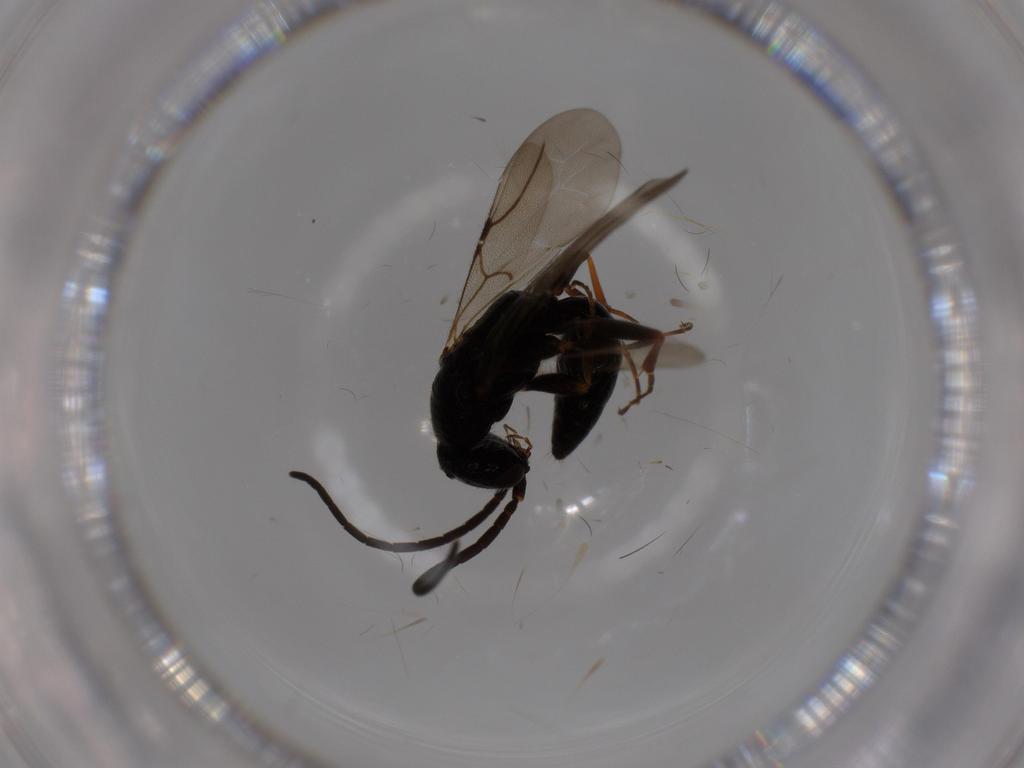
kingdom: Animalia
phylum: Arthropoda
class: Insecta
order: Hymenoptera
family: Bethylidae
